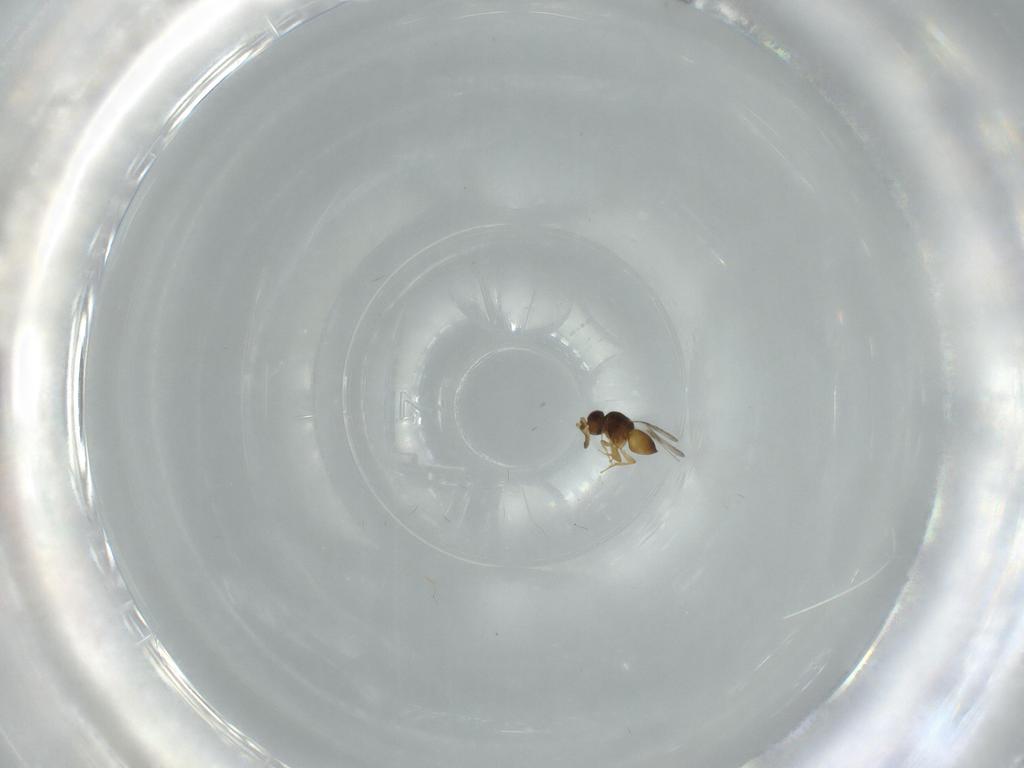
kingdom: Animalia
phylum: Arthropoda
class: Insecta
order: Hymenoptera
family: Ceraphronidae
